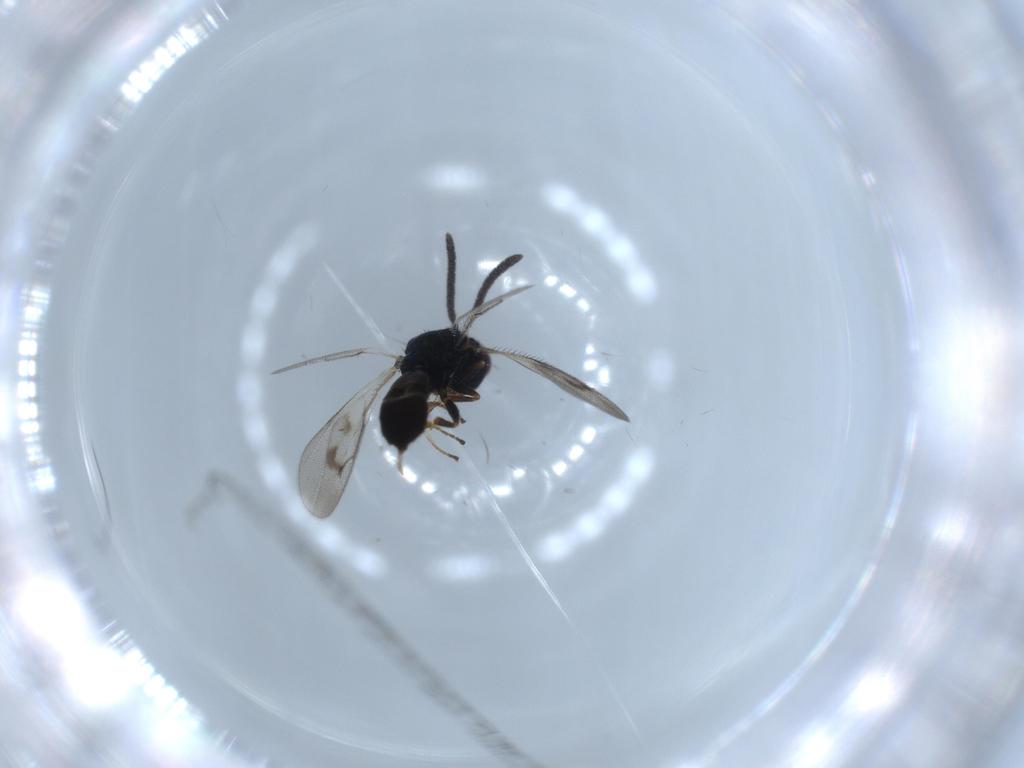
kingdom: Animalia
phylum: Arthropoda
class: Insecta
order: Hymenoptera
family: Pteromalidae
